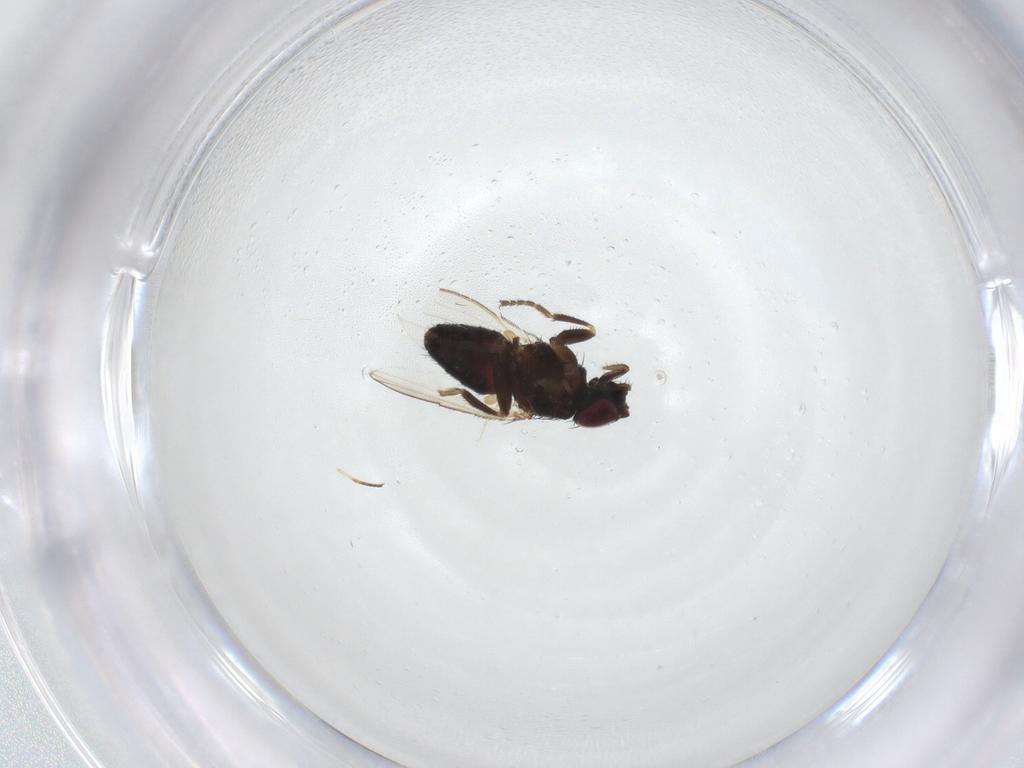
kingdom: Animalia
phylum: Arthropoda
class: Insecta
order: Diptera
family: Milichiidae
